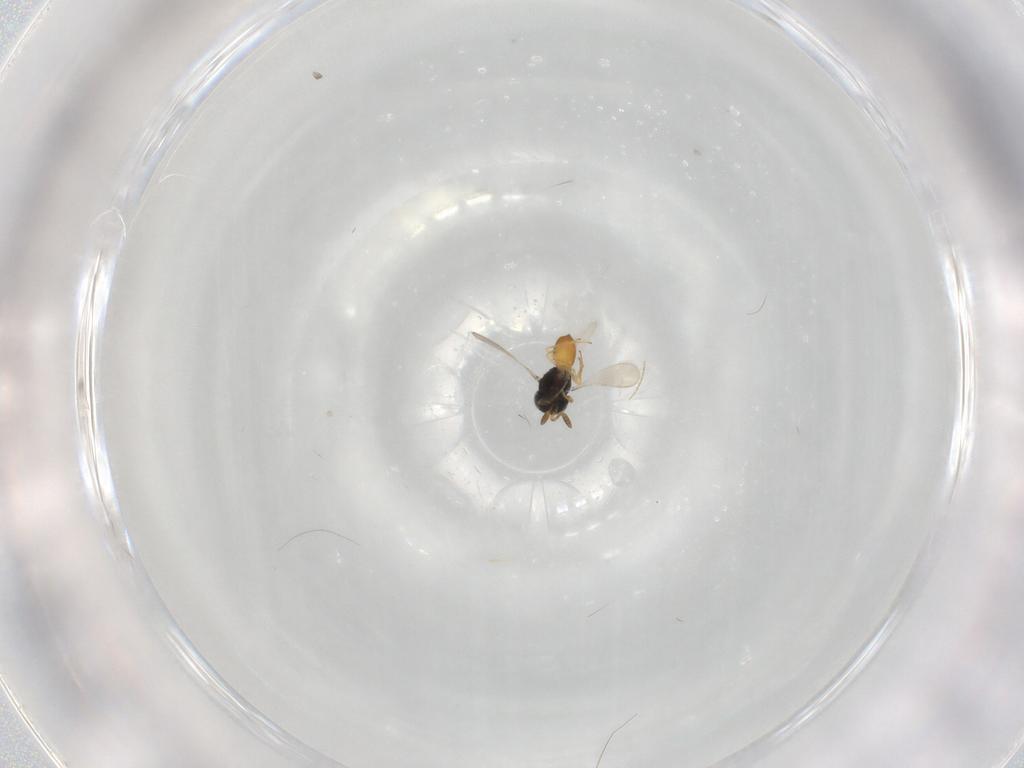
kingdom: Animalia
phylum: Arthropoda
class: Insecta
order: Hymenoptera
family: Scelionidae
